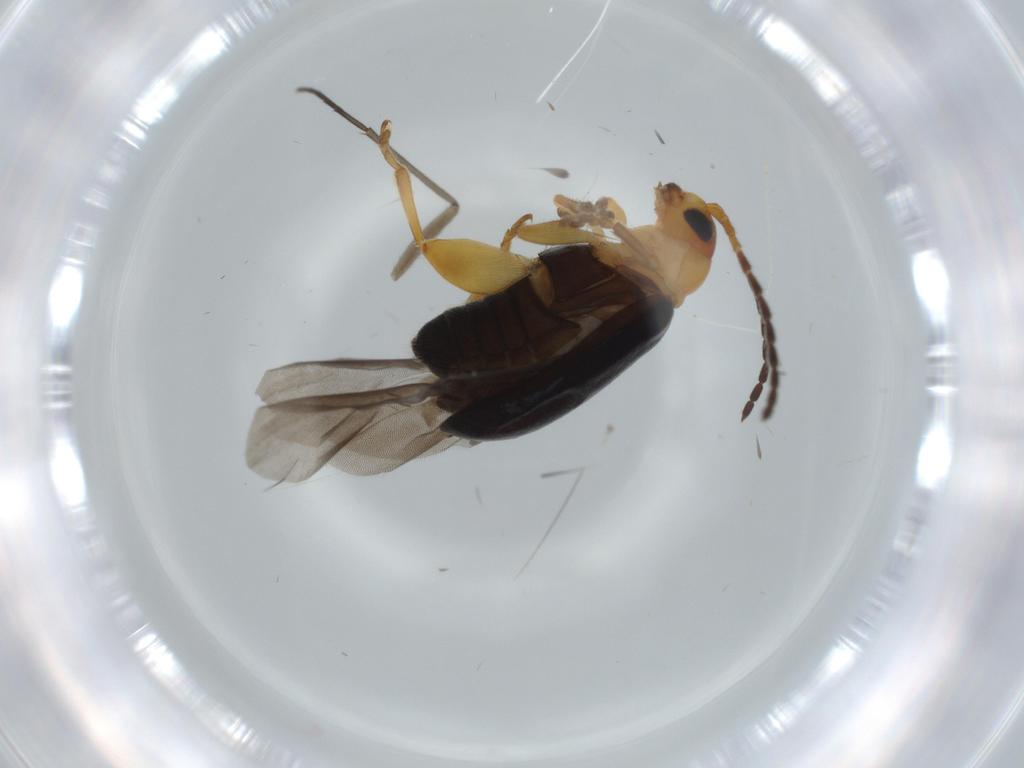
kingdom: Animalia
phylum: Arthropoda
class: Insecta
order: Coleoptera
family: Chrysomelidae
